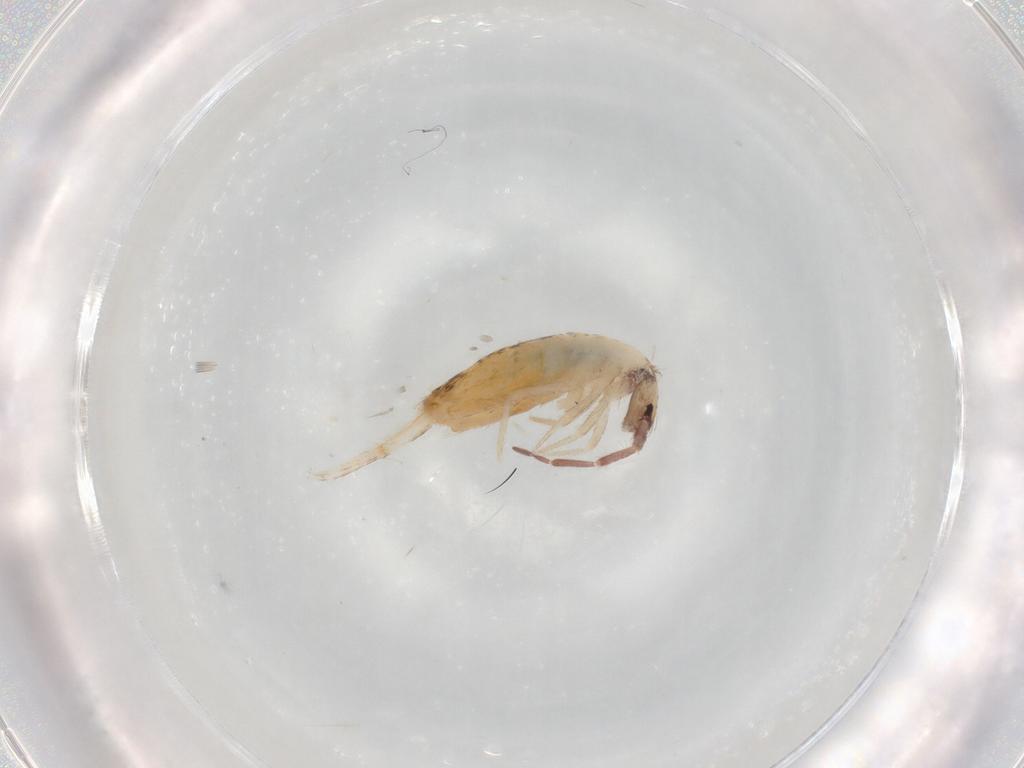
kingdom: Animalia
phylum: Arthropoda
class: Collembola
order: Entomobryomorpha
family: Entomobryidae
